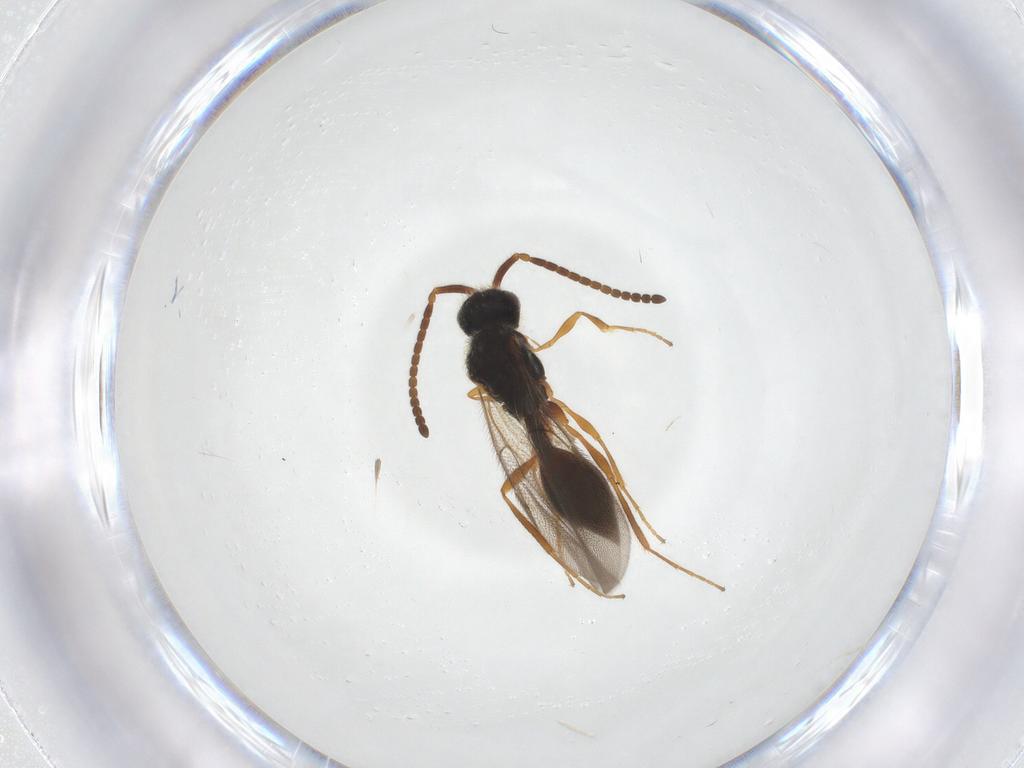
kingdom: Animalia
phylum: Arthropoda
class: Insecta
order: Hymenoptera
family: Diapriidae
